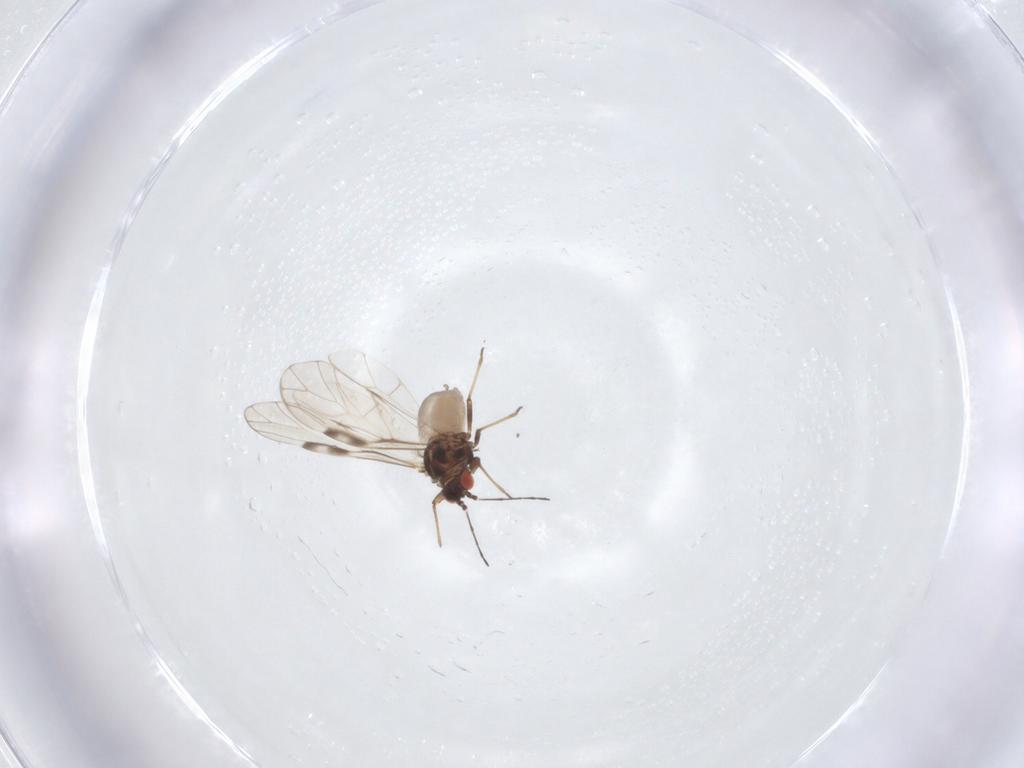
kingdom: Animalia
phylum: Arthropoda
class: Insecta
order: Hemiptera
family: Aphididae
